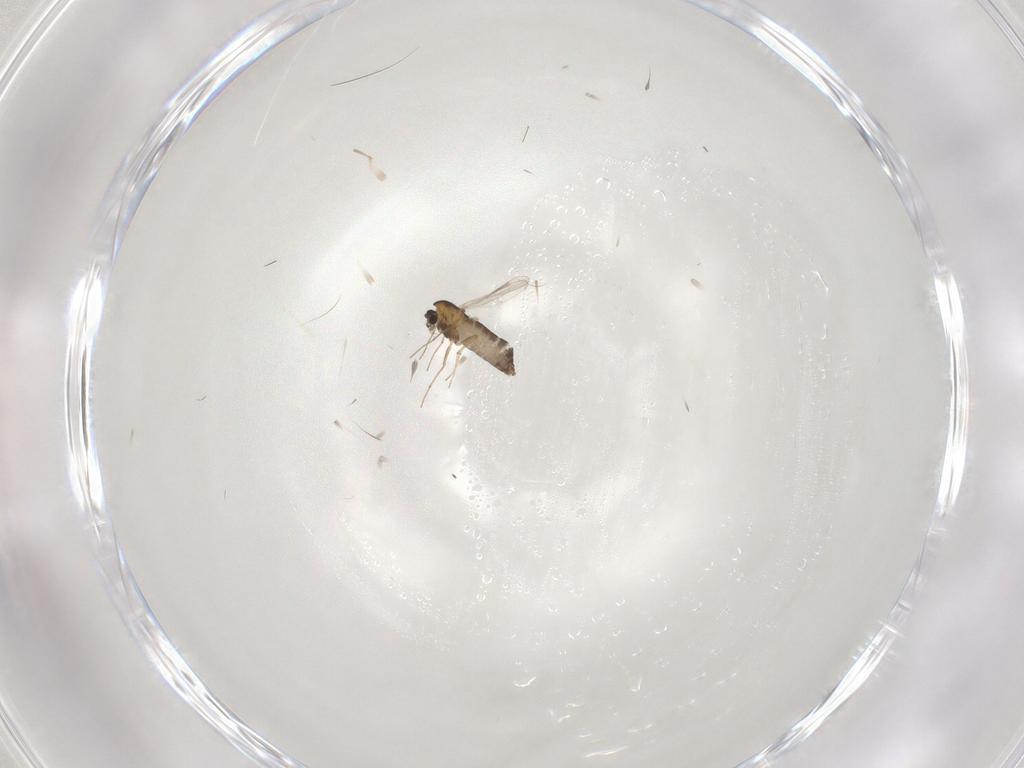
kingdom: Animalia
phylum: Arthropoda
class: Insecta
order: Diptera
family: Chironomidae
